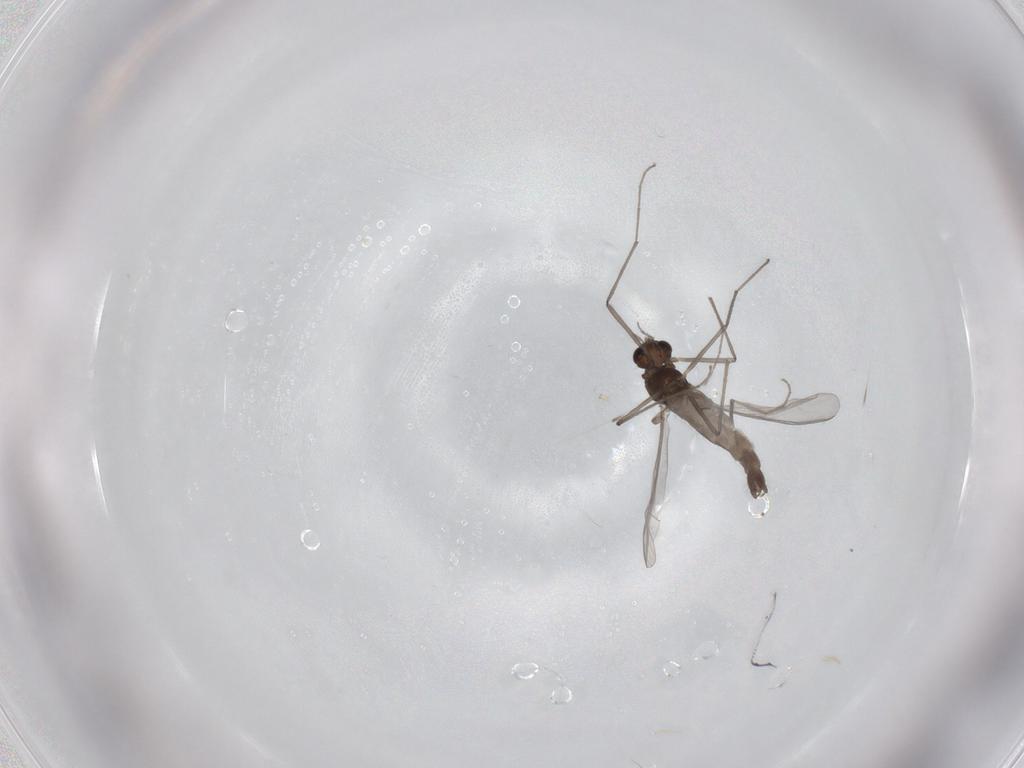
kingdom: Animalia
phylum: Arthropoda
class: Insecta
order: Diptera
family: Chironomidae
